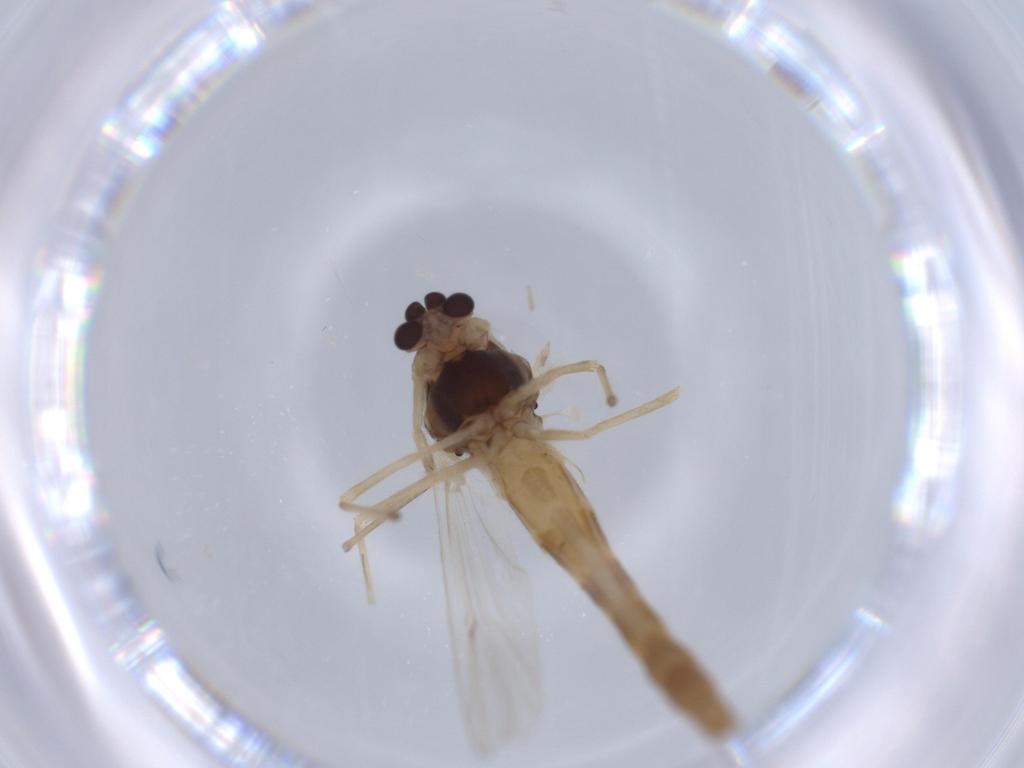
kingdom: Animalia
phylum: Arthropoda
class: Insecta
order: Diptera
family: Chironomidae
